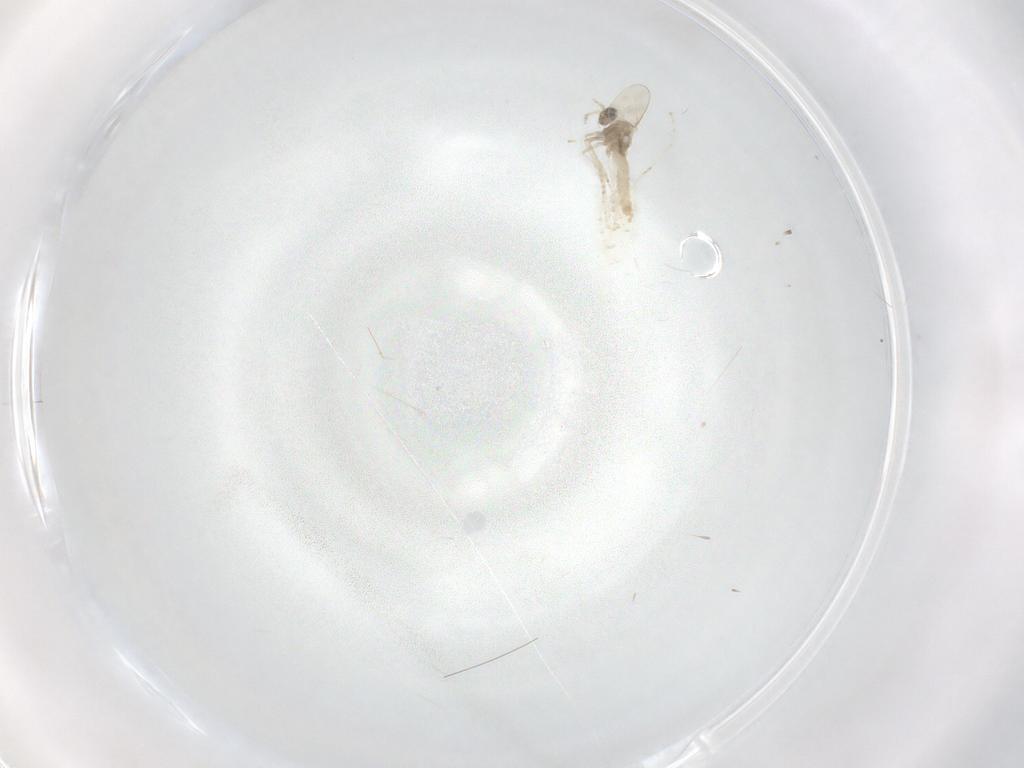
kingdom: Animalia
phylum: Arthropoda
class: Insecta
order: Diptera
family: Cecidomyiidae
